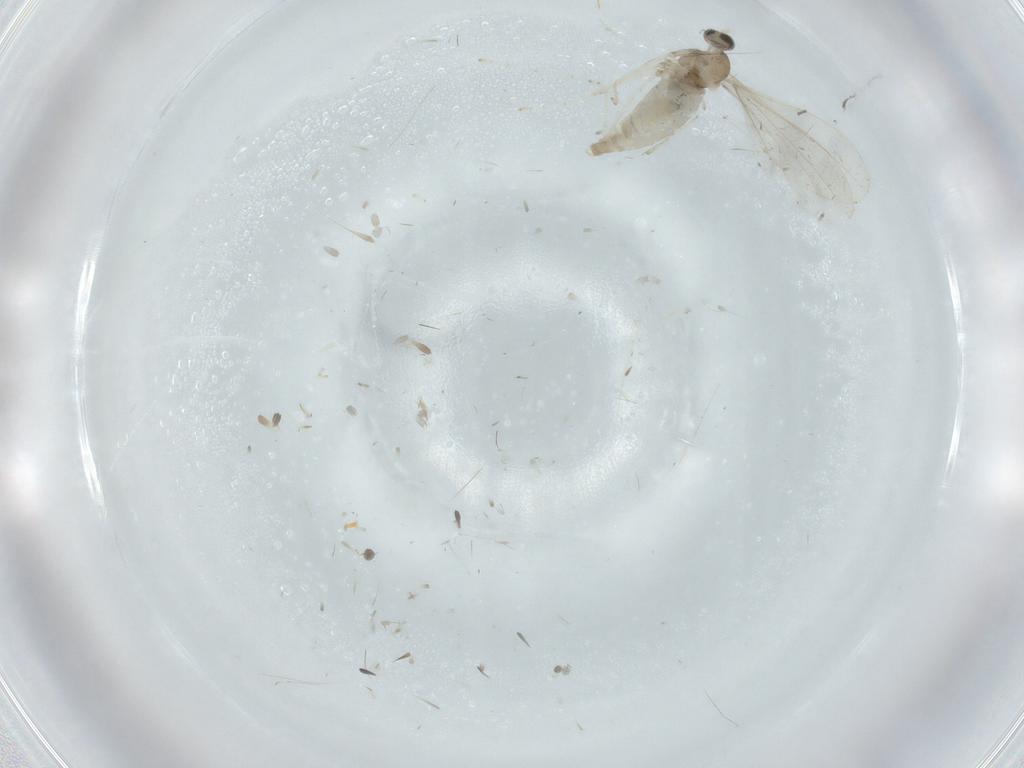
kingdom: Animalia
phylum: Arthropoda
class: Insecta
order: Diptera
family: Cecidomyiidae
